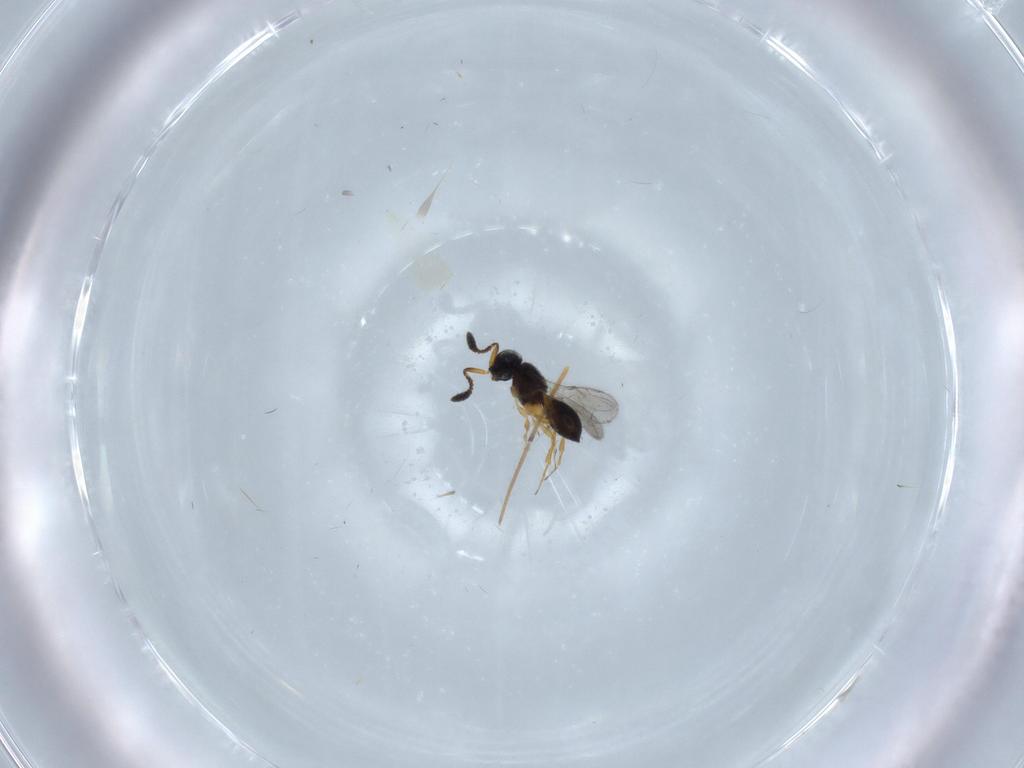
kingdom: Animalia
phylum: Arthropoda
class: Insecta
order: Hymenoptera
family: Scelionidae
